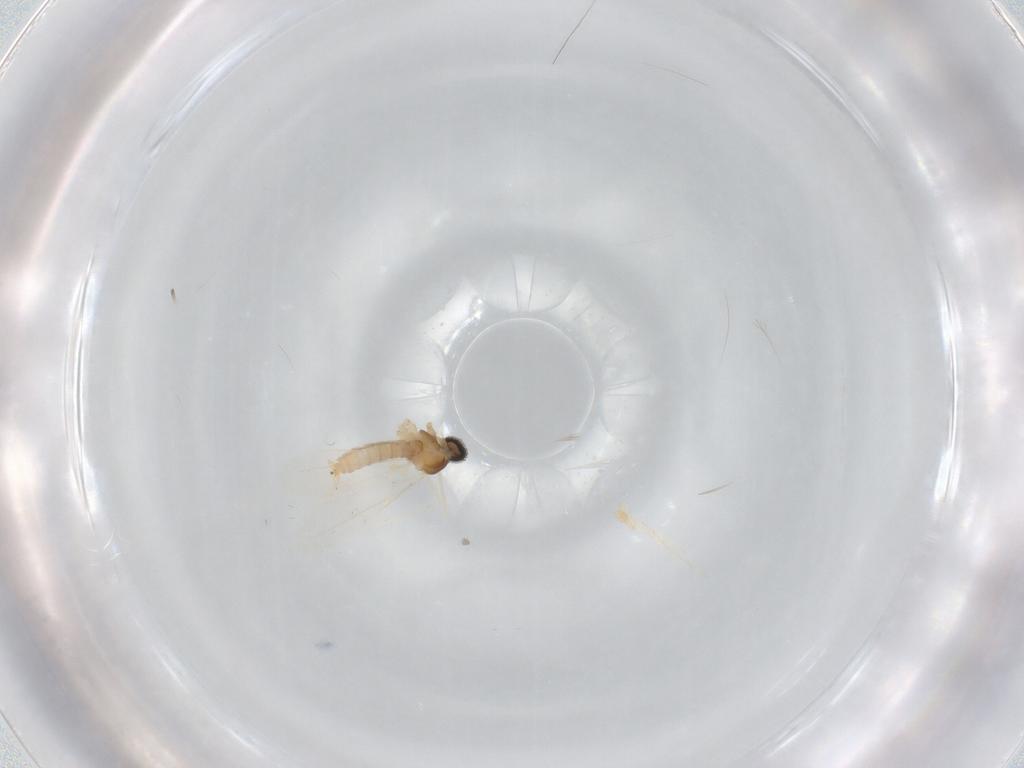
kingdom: Animalia
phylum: Arthropoda
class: Insecta
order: Diptera
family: Cecidomyiidae
